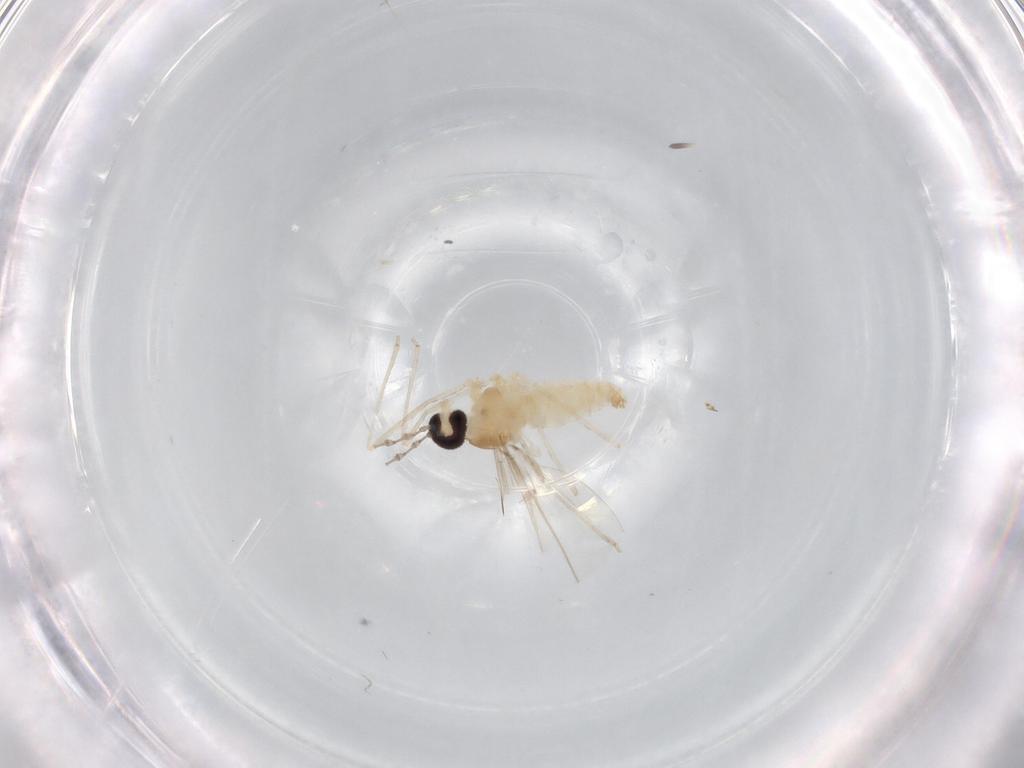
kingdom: Animalia
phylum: Arthropoda
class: Insecta
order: Diptera
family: Cecidomyiidae
